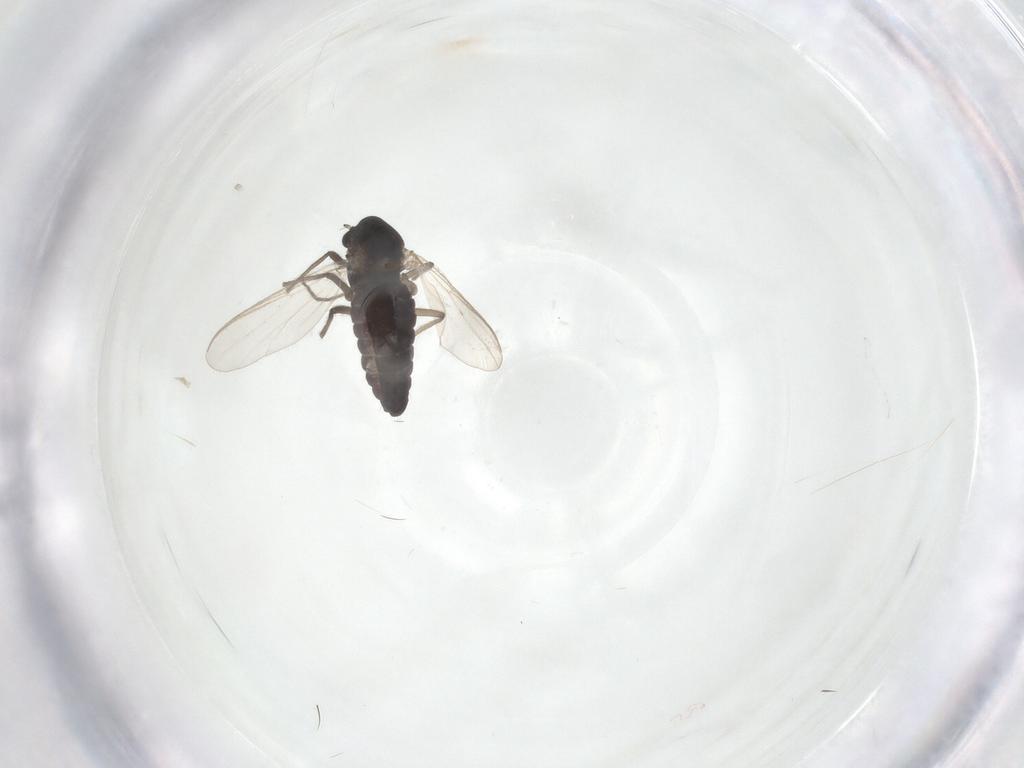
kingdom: Animalia
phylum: Arthropoda
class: Insecta
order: Diptera
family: Chironomidae
